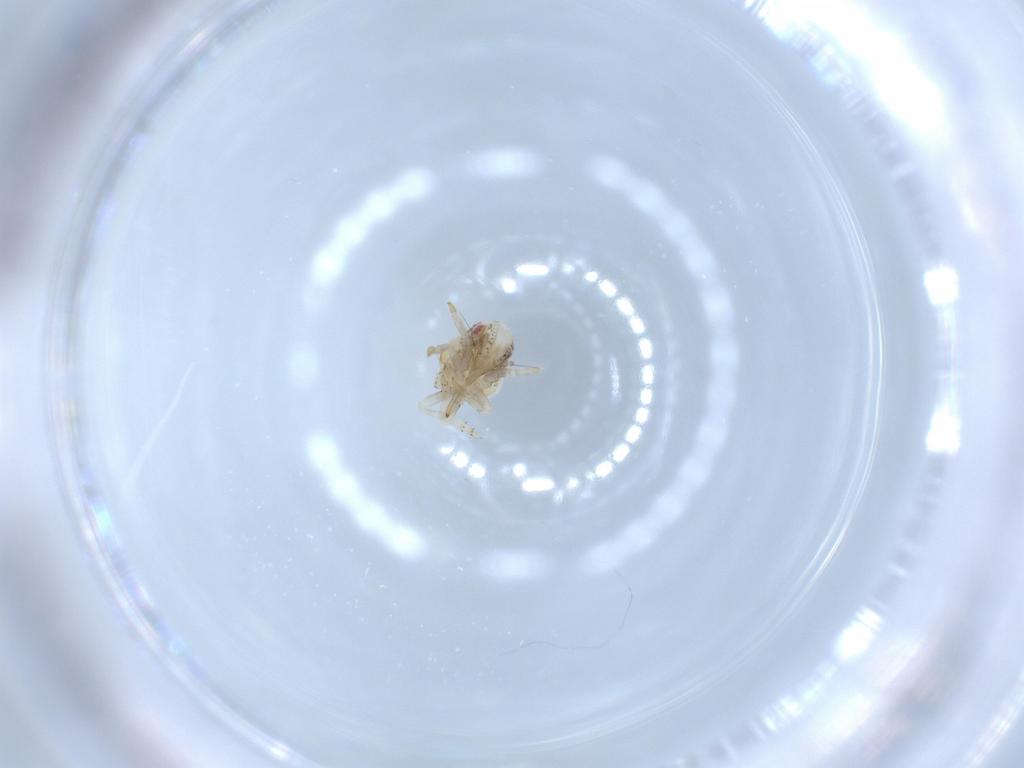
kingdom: Animalia
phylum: Arthropoda
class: Insecta
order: Hemiptera
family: Acanaloniidae
